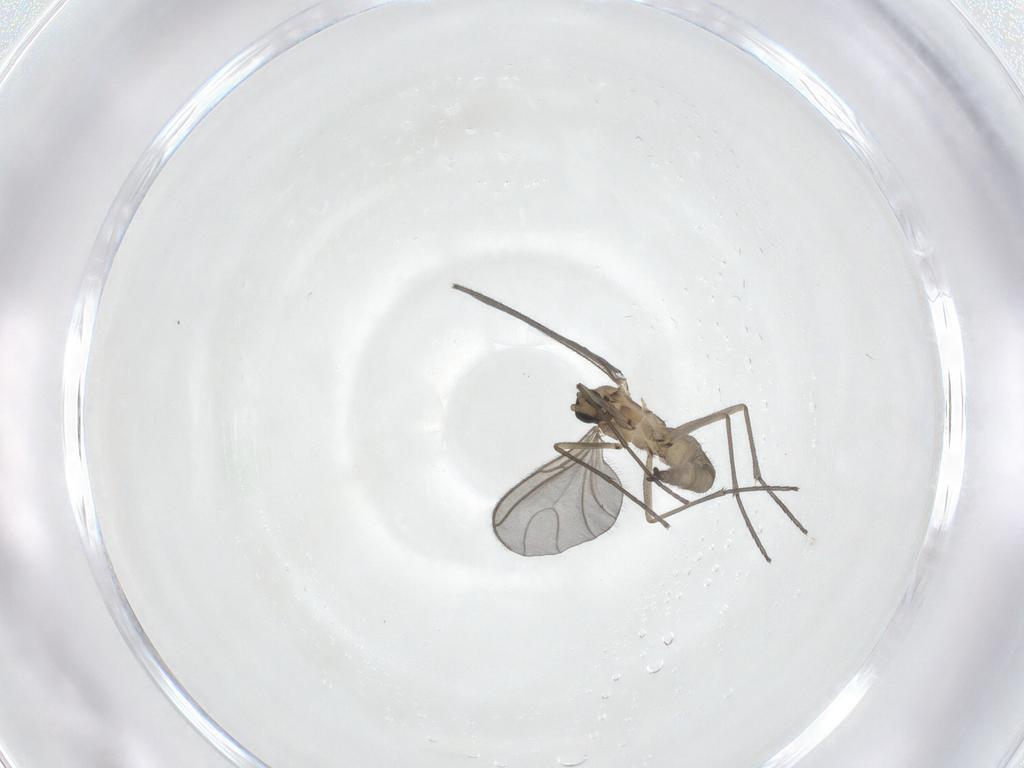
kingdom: Animalia
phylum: Arthropoda
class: Insecta
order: Diptera
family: Sciaridae
